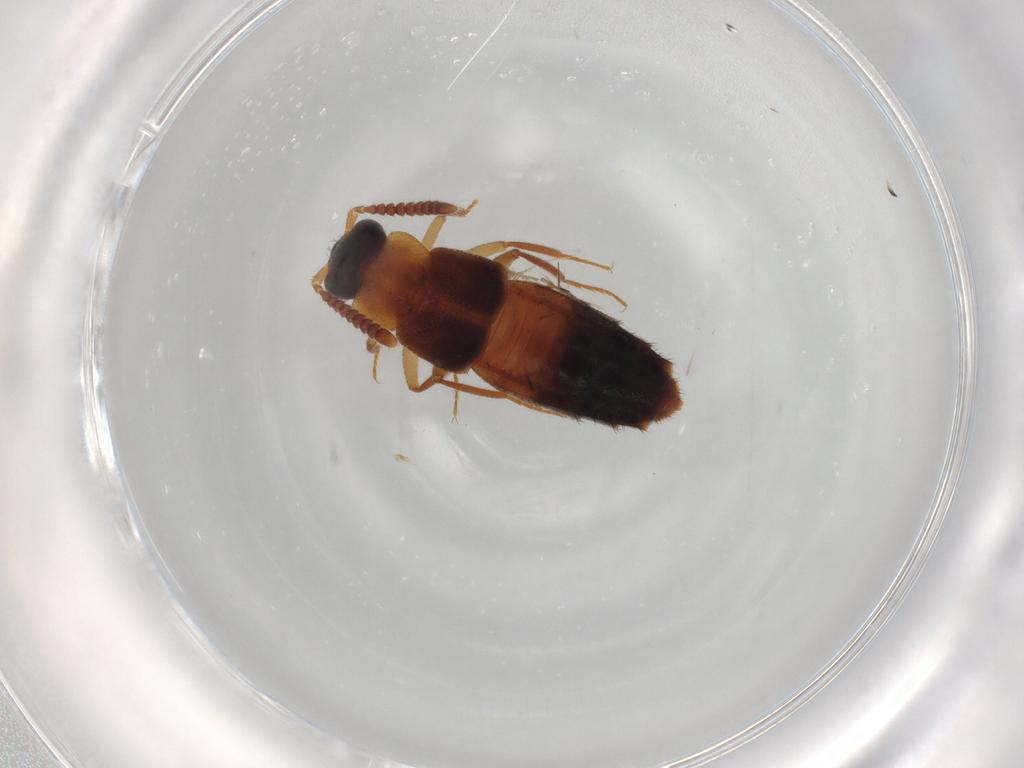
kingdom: Animalia
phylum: Arthropoda
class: Insecta
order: Coleoptera
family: Staphylinidae
